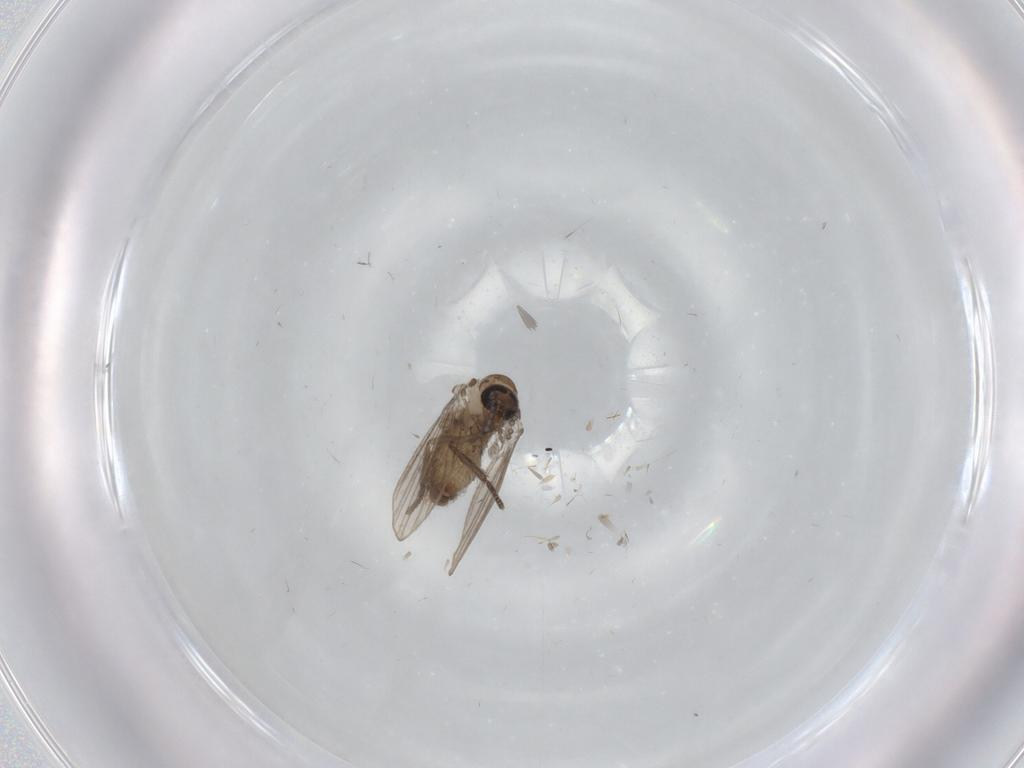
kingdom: Animalia
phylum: Arthropoda
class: Insecta
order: Diptera
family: Psychodidae
